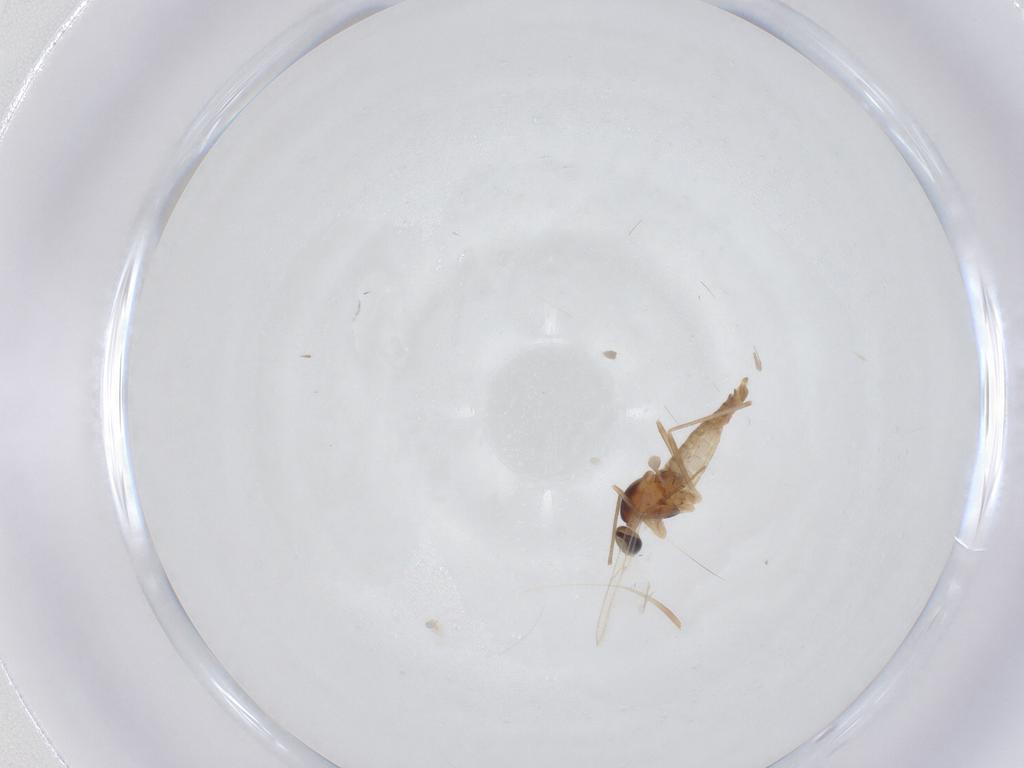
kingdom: Animalia
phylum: Arthropoda
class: Insecta
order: Diptera
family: Cecidomyiidae
